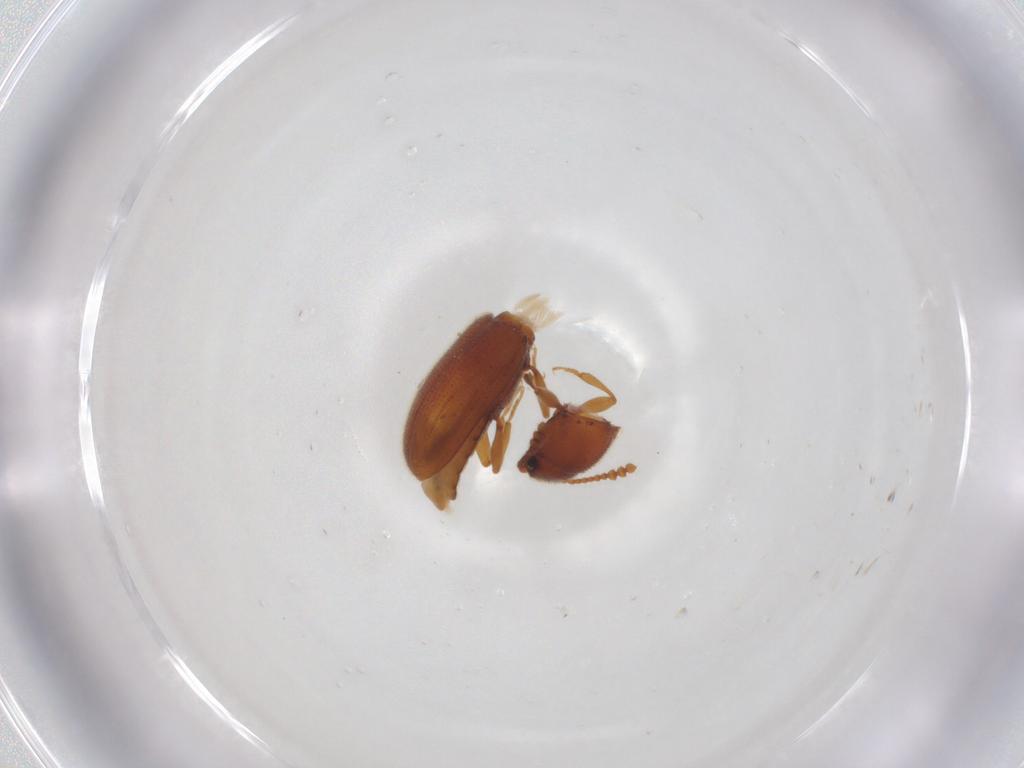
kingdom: Animalia
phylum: Arthropoda
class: Insecta
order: Coleoptera
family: Erotylidae
